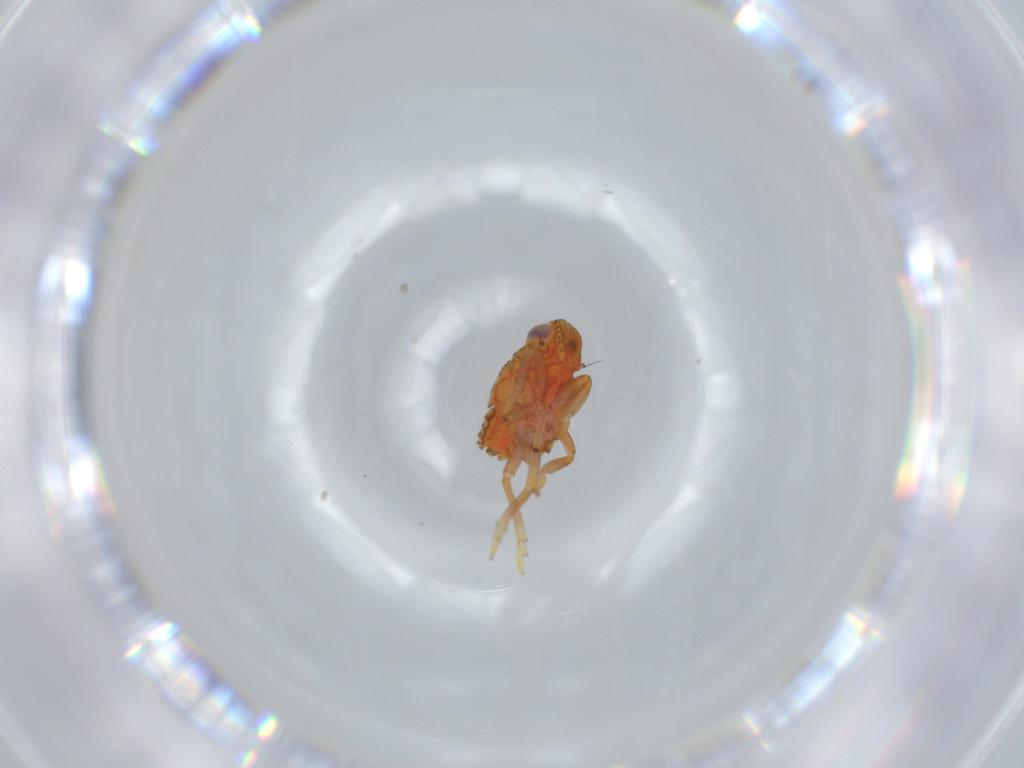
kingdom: Animalia
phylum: Arthropoda
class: Insecta
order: Hemiptera
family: Issidae
